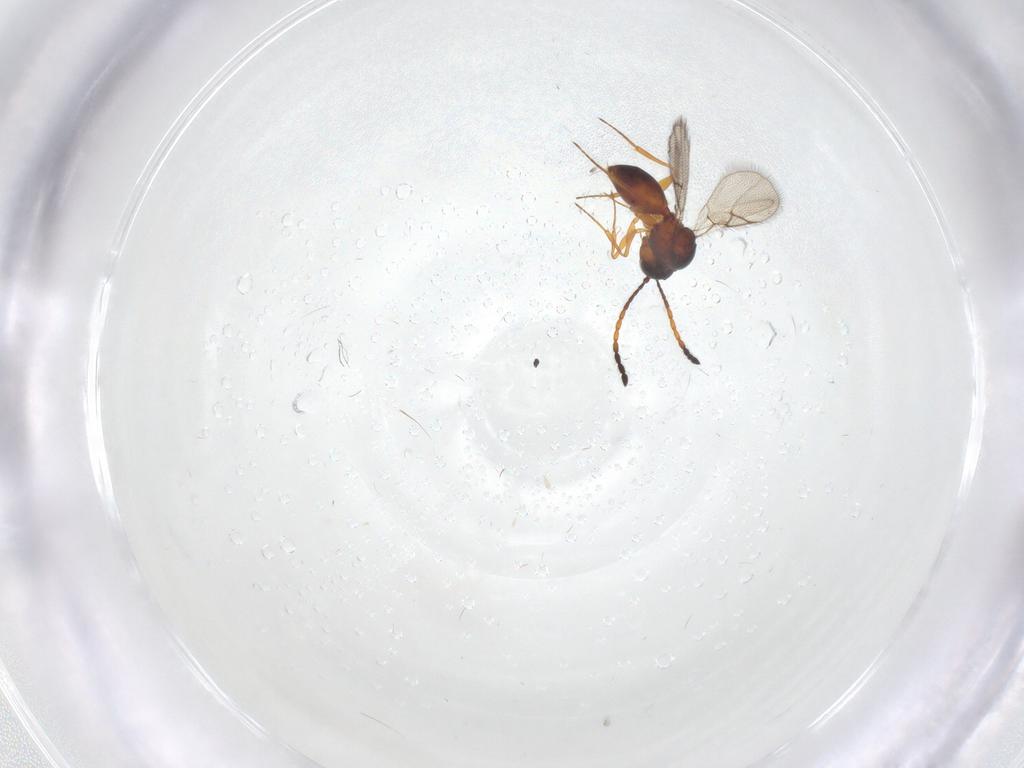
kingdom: Animalia
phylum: Arthropoda
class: Insecta
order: Hymenoptera
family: Figitidae
